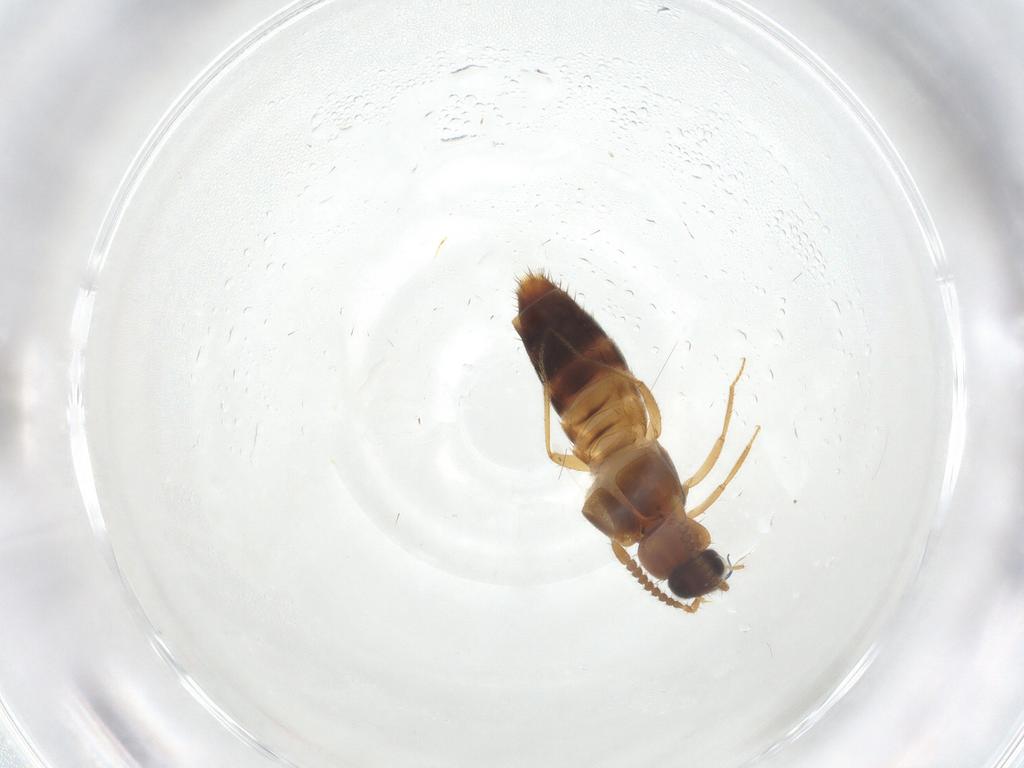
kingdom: Animalia
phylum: Arthropoda
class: Insecta
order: Coleoptera
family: Staphylinidae
